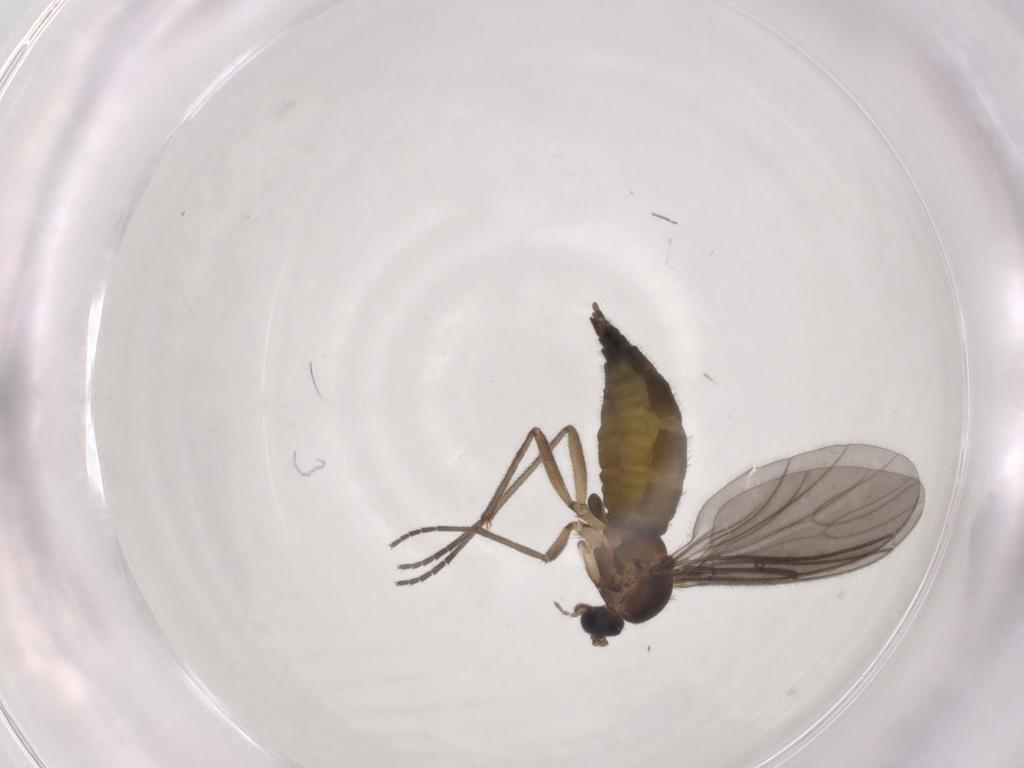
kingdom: Animalia
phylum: Arthropoda
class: Insecta
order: Diptera
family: Sciaridae
